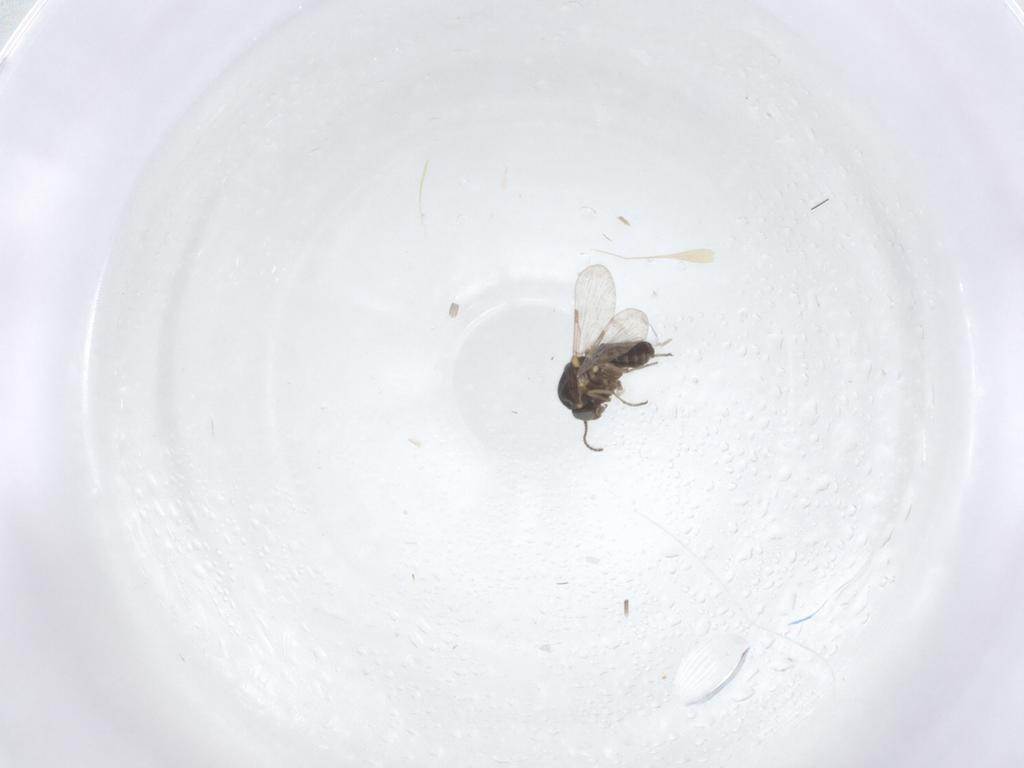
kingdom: Animalia
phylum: Arthropoda
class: Insecta
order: Diptera
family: Ceratopogonidae
